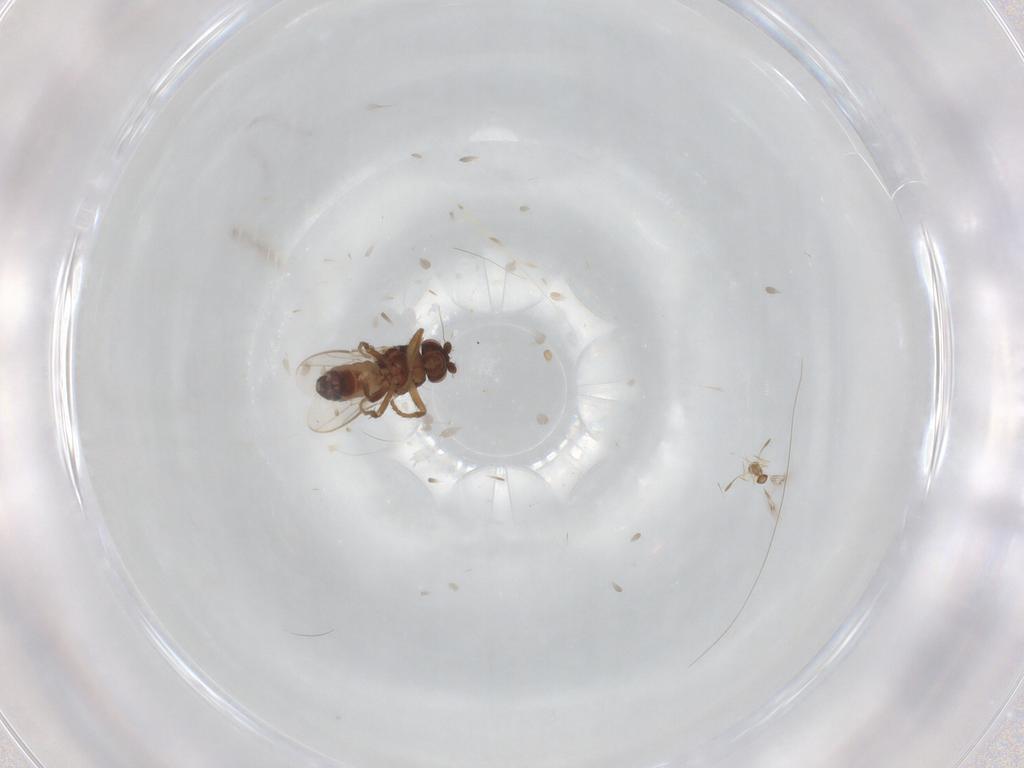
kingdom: Animalia
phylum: Arthropoda
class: Insecta
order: Diptera
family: Sphaeroceridae
